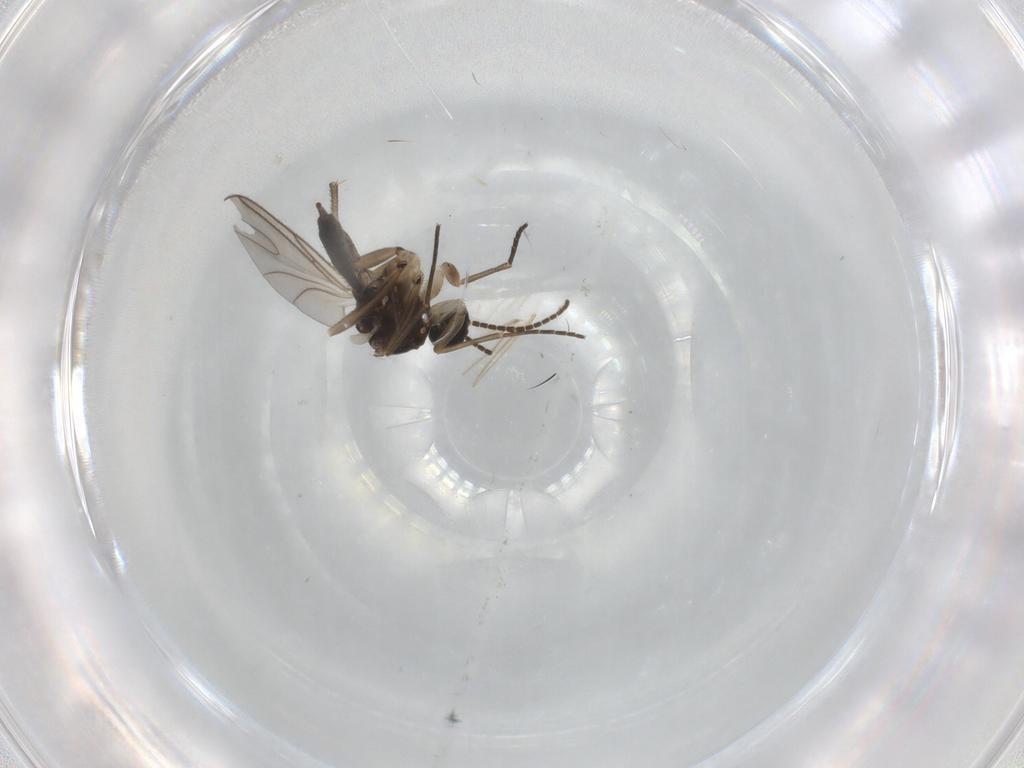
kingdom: Animalia
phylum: Arthropoda
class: Insecta
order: Diptera
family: Sciaridae
